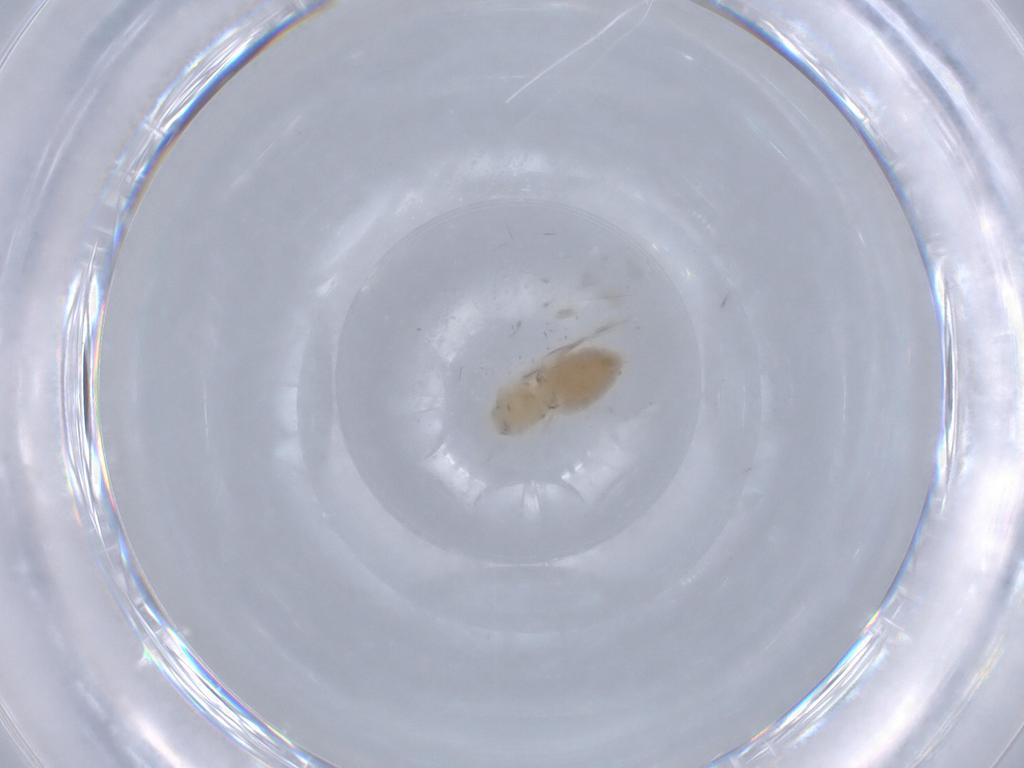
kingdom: Animalia
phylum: Arthropoda
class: Insecta
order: Hemiptera
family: Aphididae
